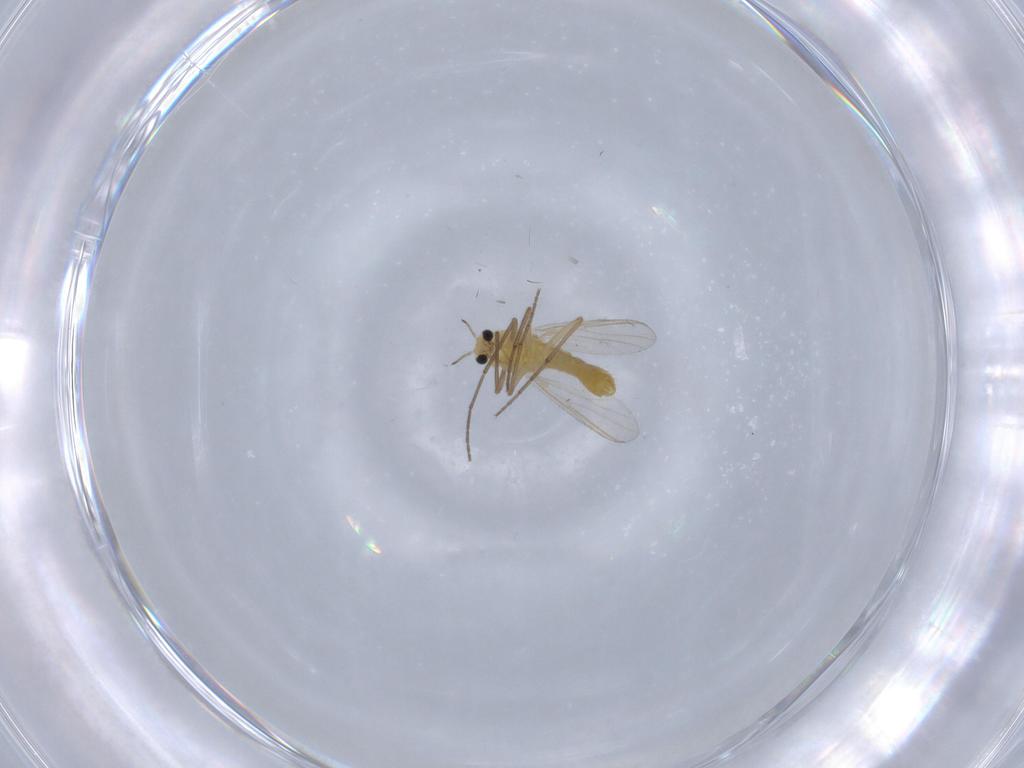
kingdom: Animalia
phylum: Arthropoda
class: Insecta
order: Diptera
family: Chironomidae
